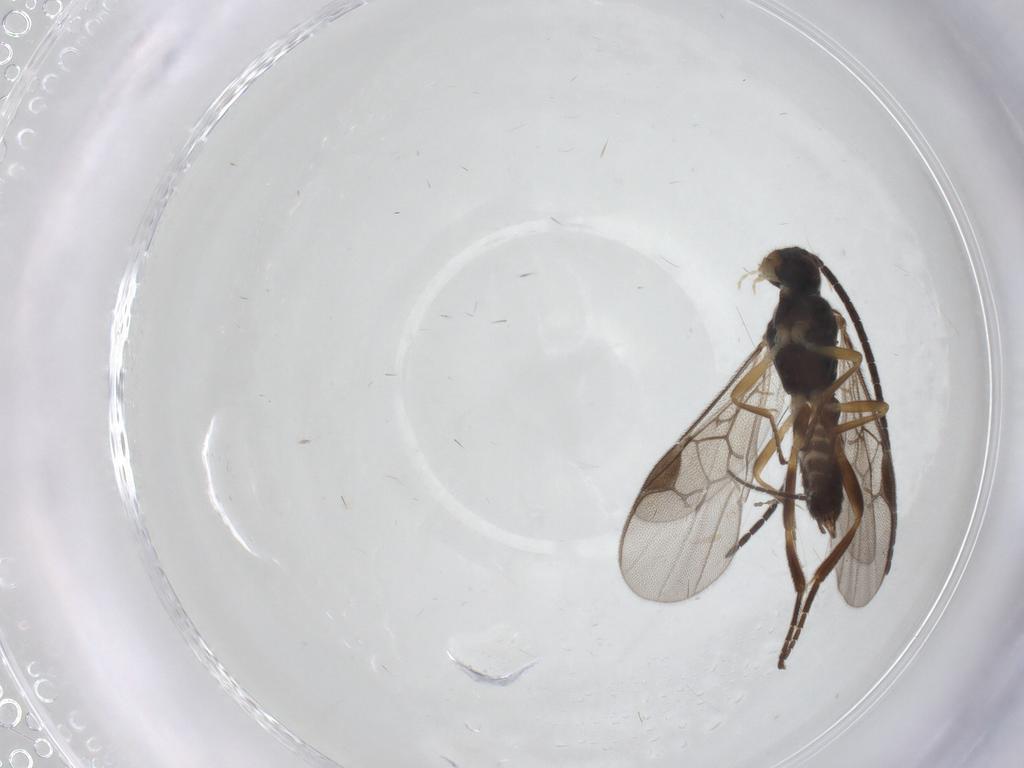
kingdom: Animalia
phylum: Arthropoda
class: Insecta
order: Hymenoptera
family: Braconidae
